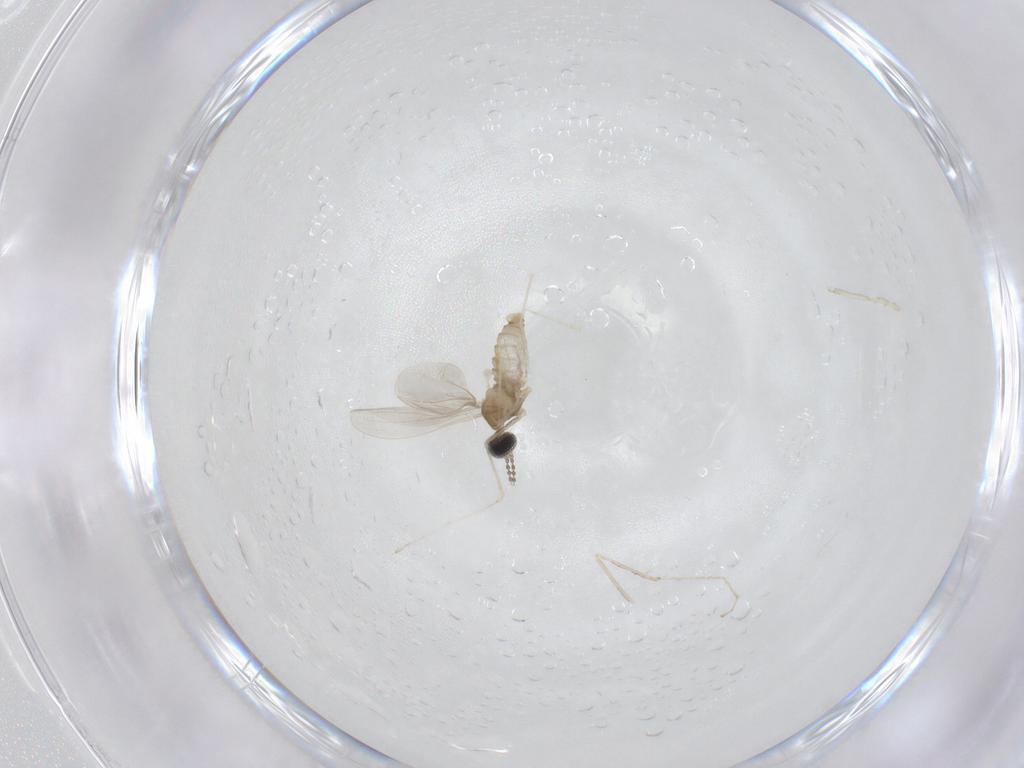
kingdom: Animalia
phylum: Arthropoda
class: Insecta
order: Diptera
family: Cecidomyiidae
